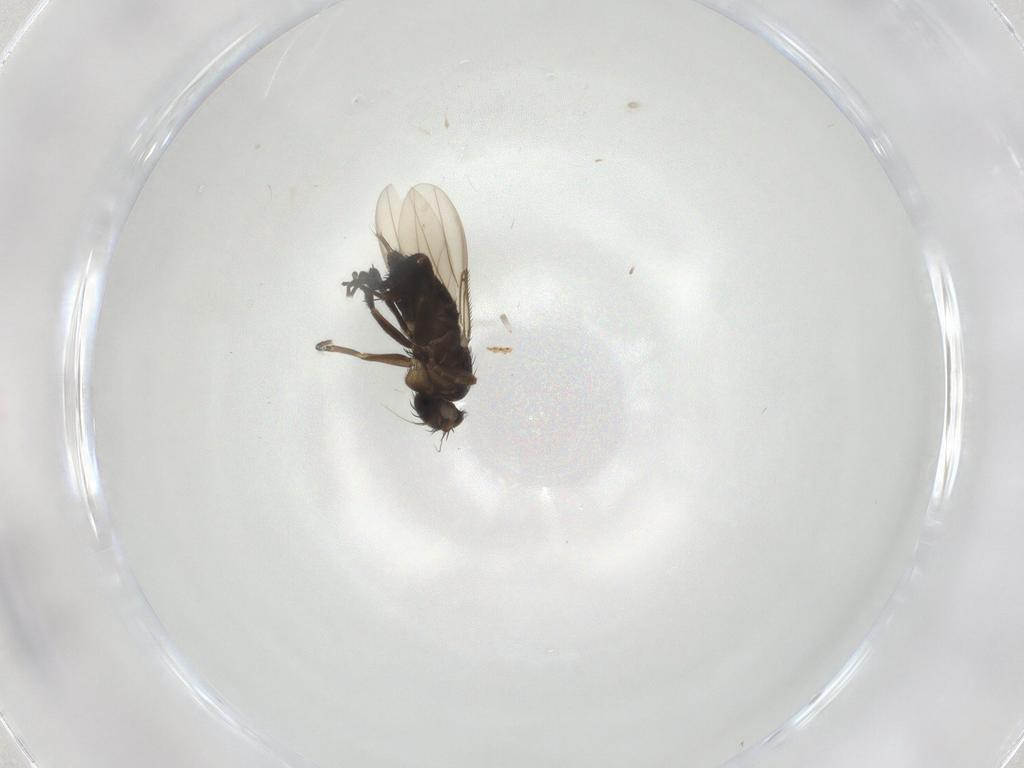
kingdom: Animalia
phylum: Arthropoda
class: Insecta
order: Diptera
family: Phoridae
